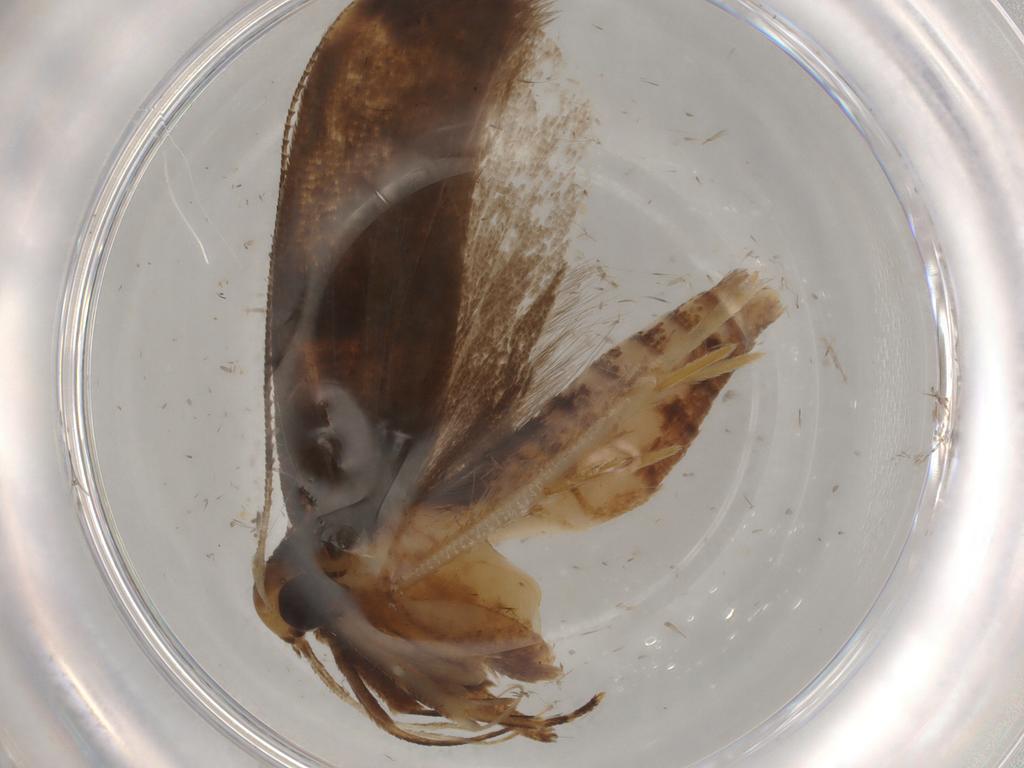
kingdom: Animalia
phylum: Arthropoda
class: Insecta
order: Lepidoptera
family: Gelechiidae
